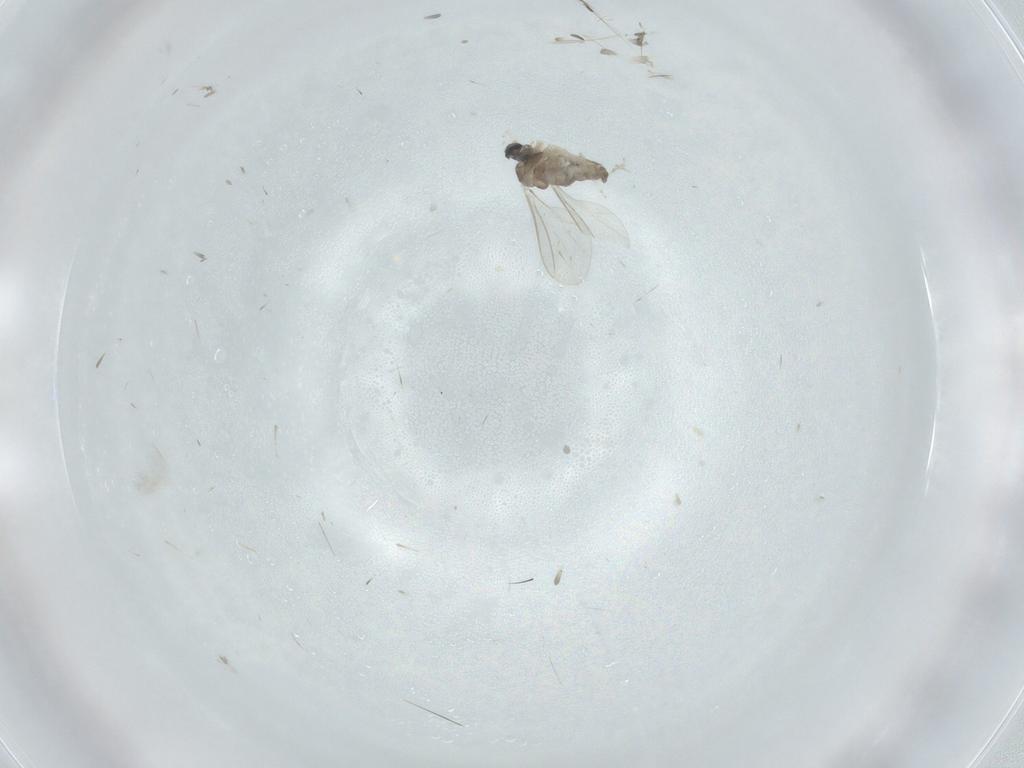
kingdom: Animalia
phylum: Arthropoda
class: Insecta
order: Diptera
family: Cecidomyiidae
